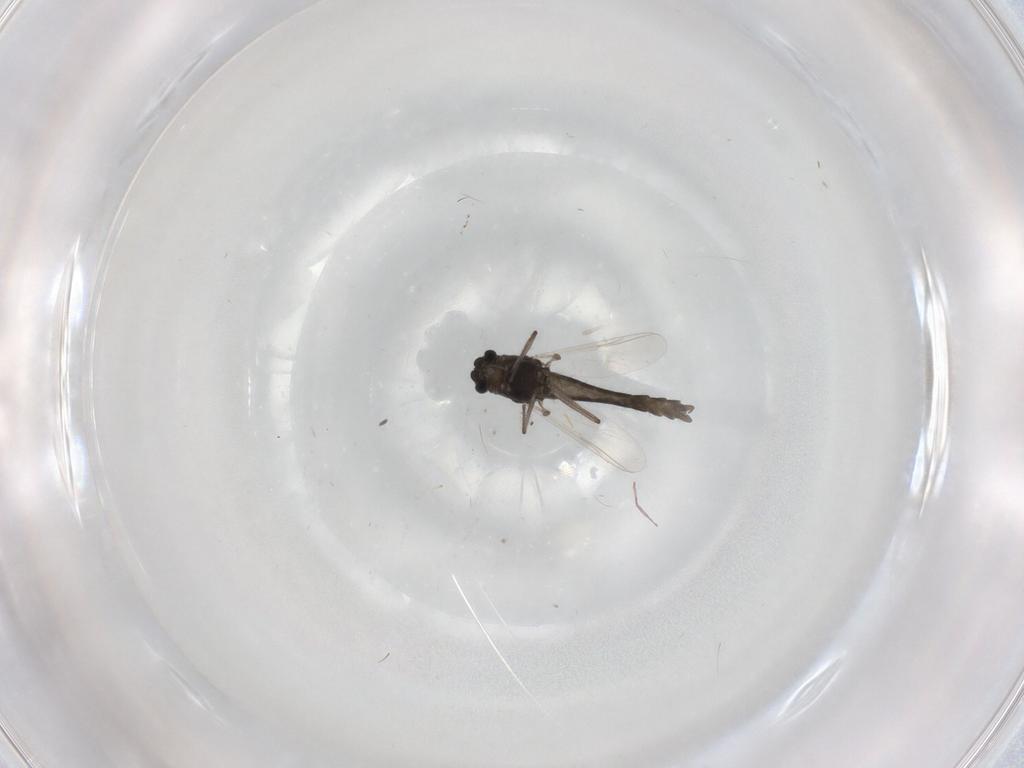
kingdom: Animalia
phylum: Arthropoda
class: Insecta
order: Diptera
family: Chironomidae
